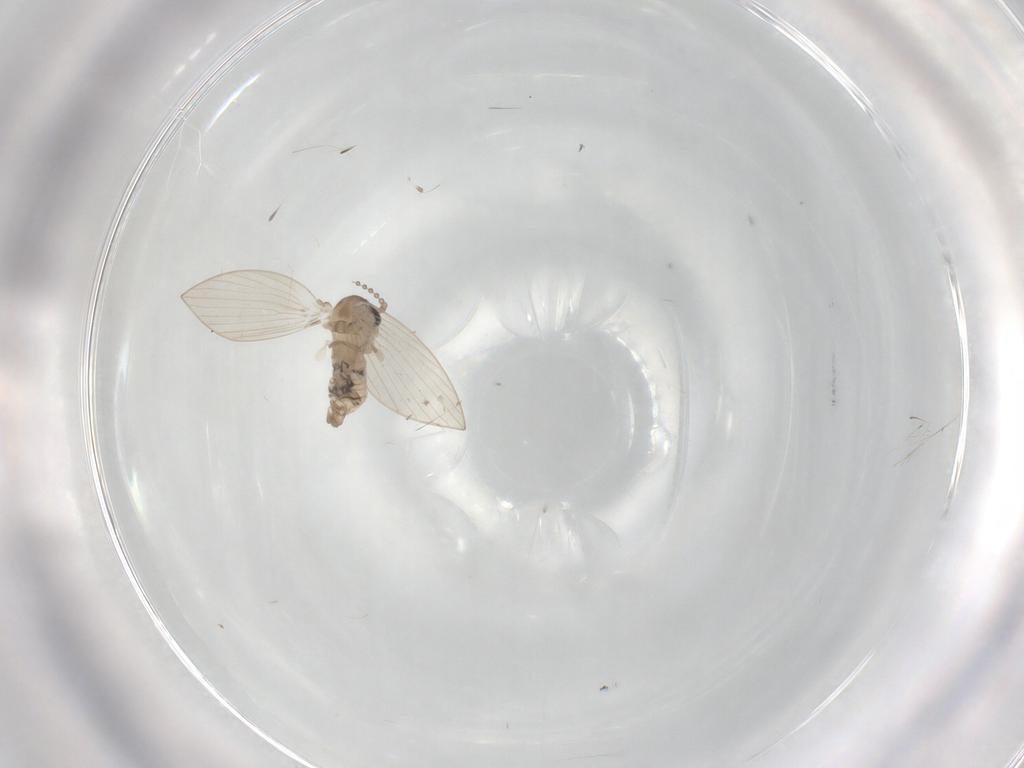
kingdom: Animalia
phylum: Arthropoda
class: Insecta
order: Diptera
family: Psychodidae
